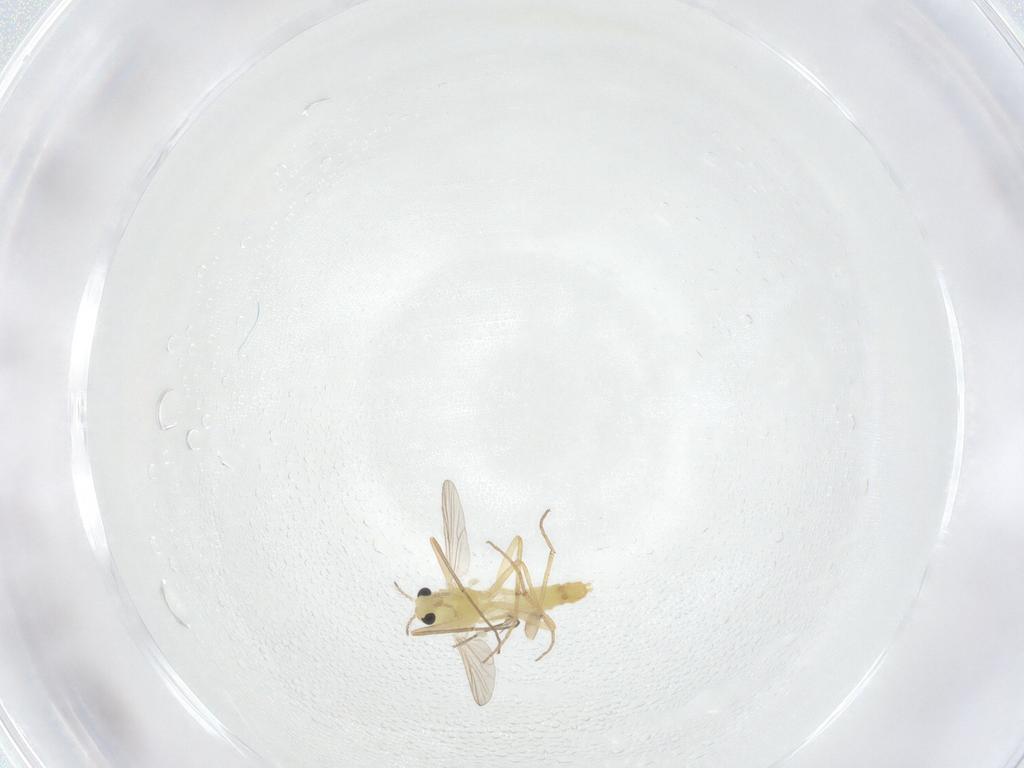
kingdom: Animalia
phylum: Arthropoda
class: Insecta
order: Diptera
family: Chironomidae
